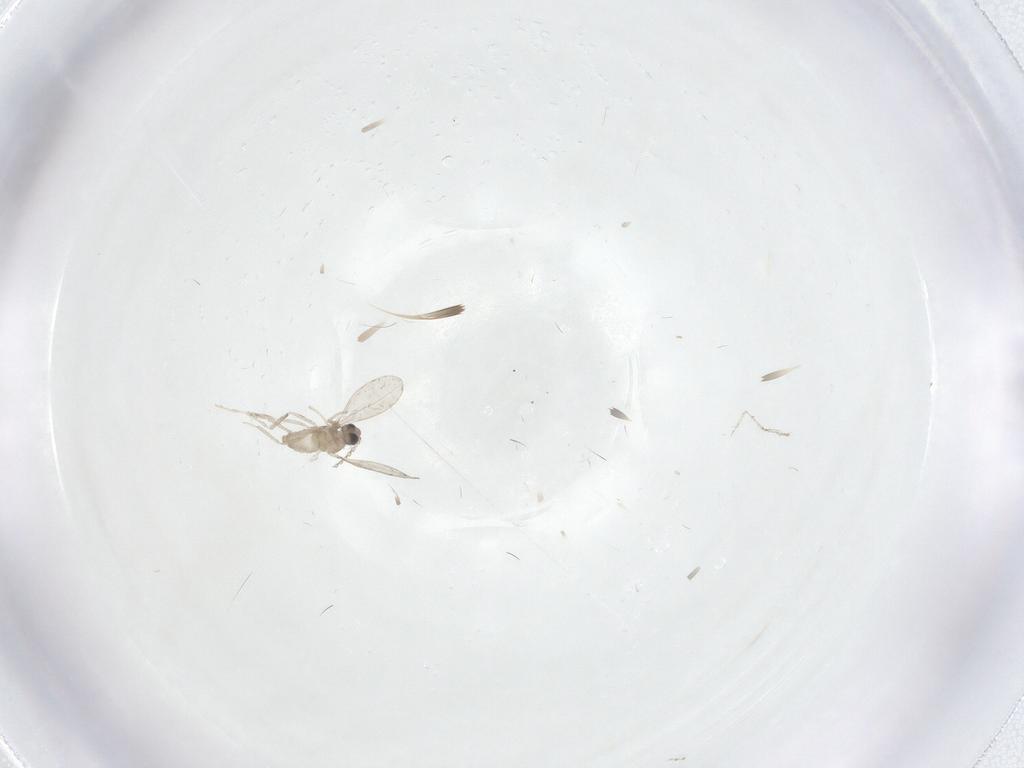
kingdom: Animalia
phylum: Arthropoda
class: Insecta
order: Diptera
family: Cecidomyiidae
